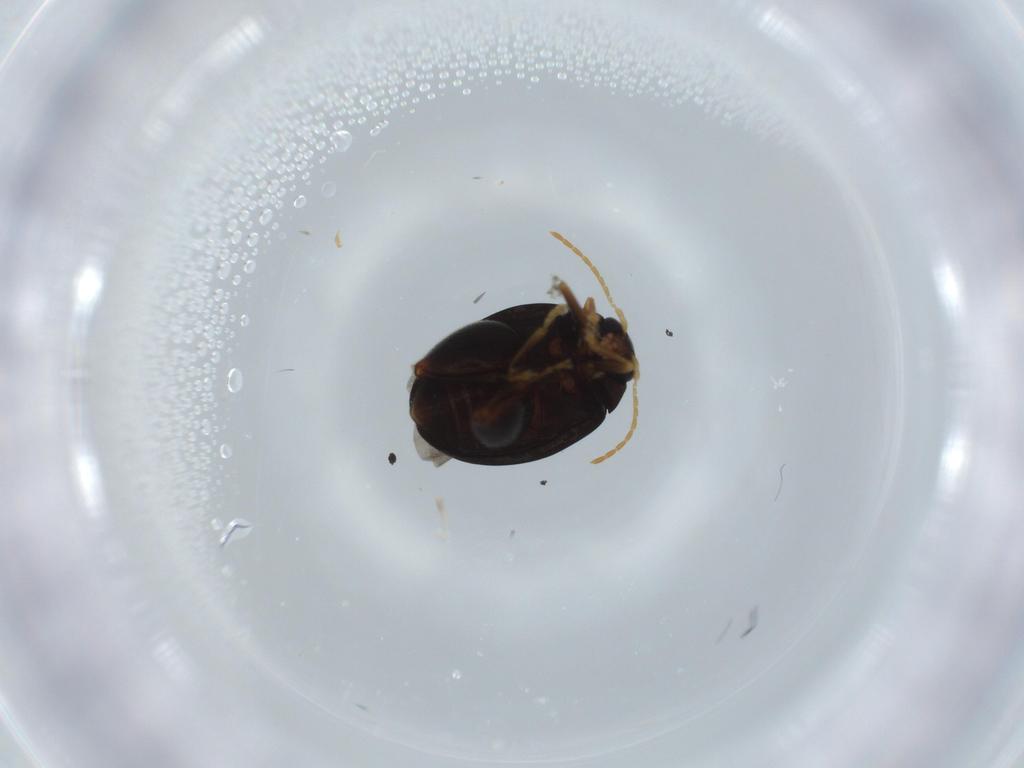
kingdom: Animalia
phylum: Arthropoda
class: Insecta
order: Coleoptera
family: Chrysomelidae
